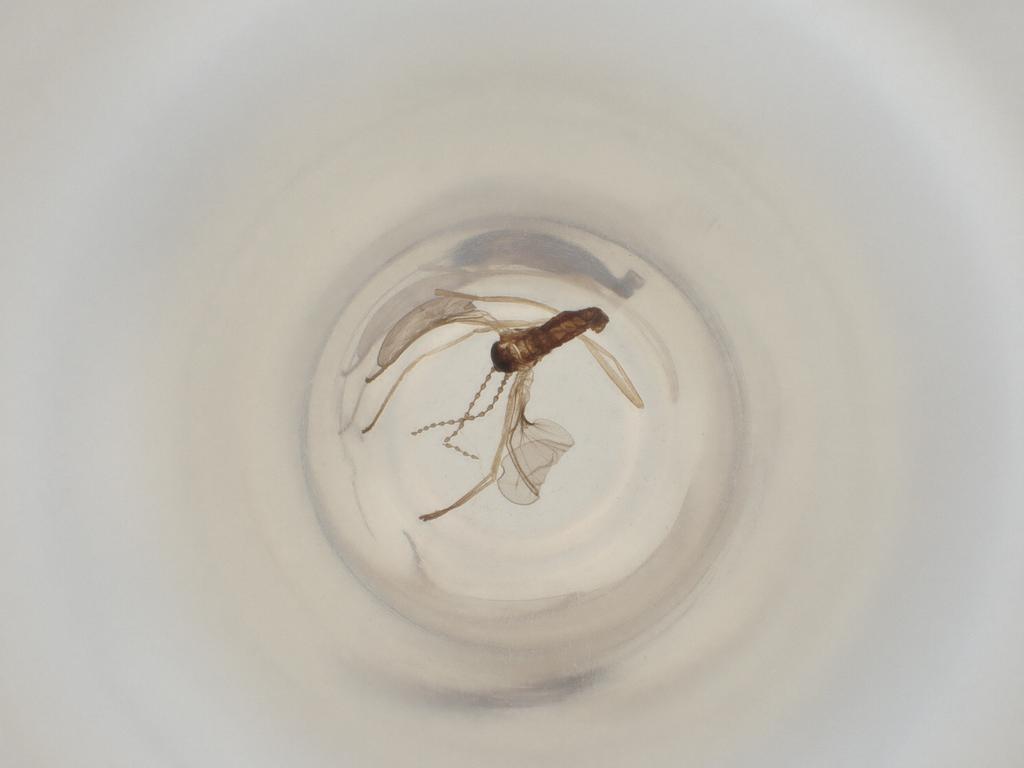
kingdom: Animalia
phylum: Arthropoda
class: Insecta
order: Diptera
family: Cecidomyiidae
